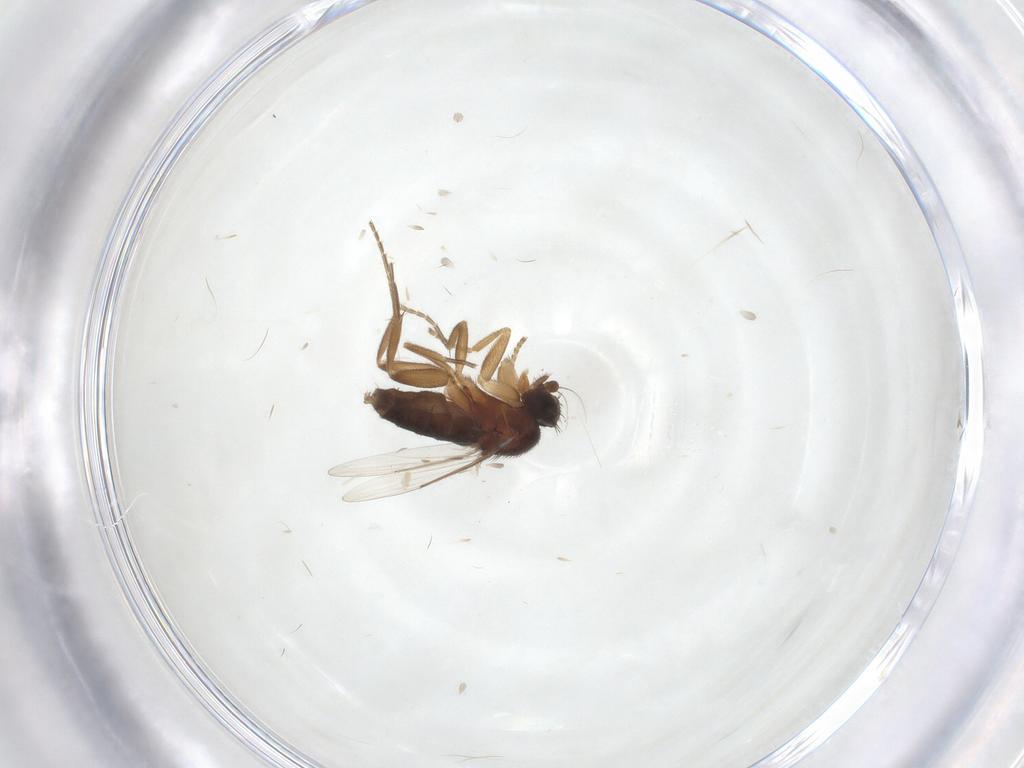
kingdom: Animalia
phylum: Arthropoda
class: Insecta
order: Diptera
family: Phoridae
